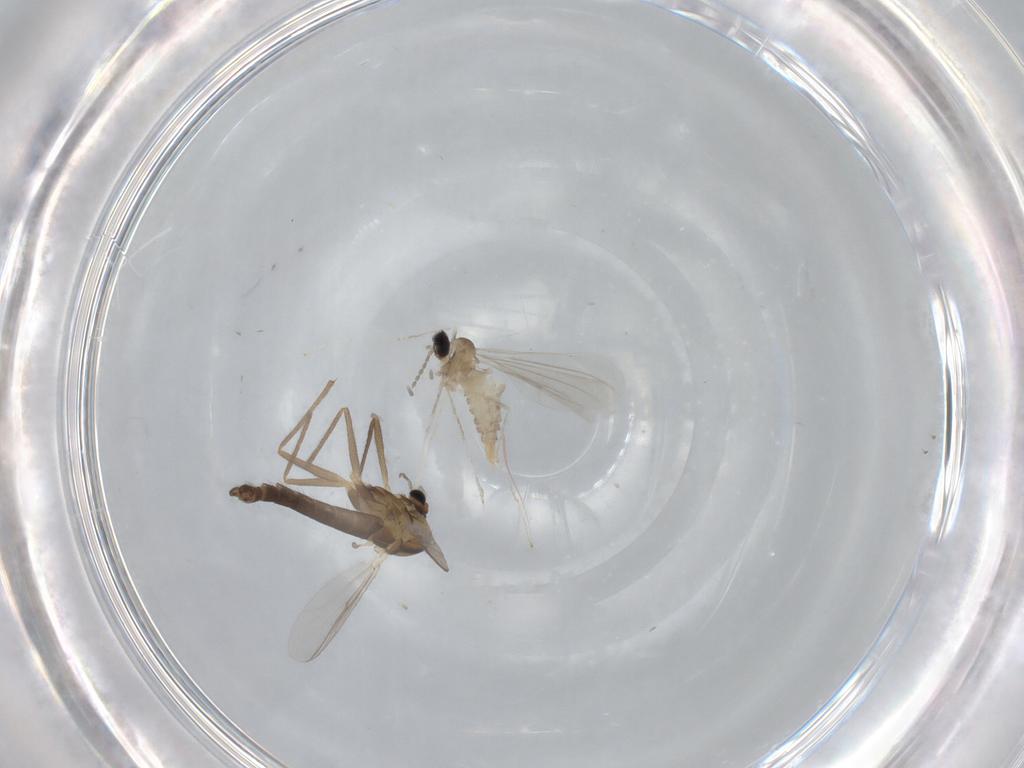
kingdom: Animalia
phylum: Arthropoda
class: Insecta
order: Diptera
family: Cecidomyiidae
